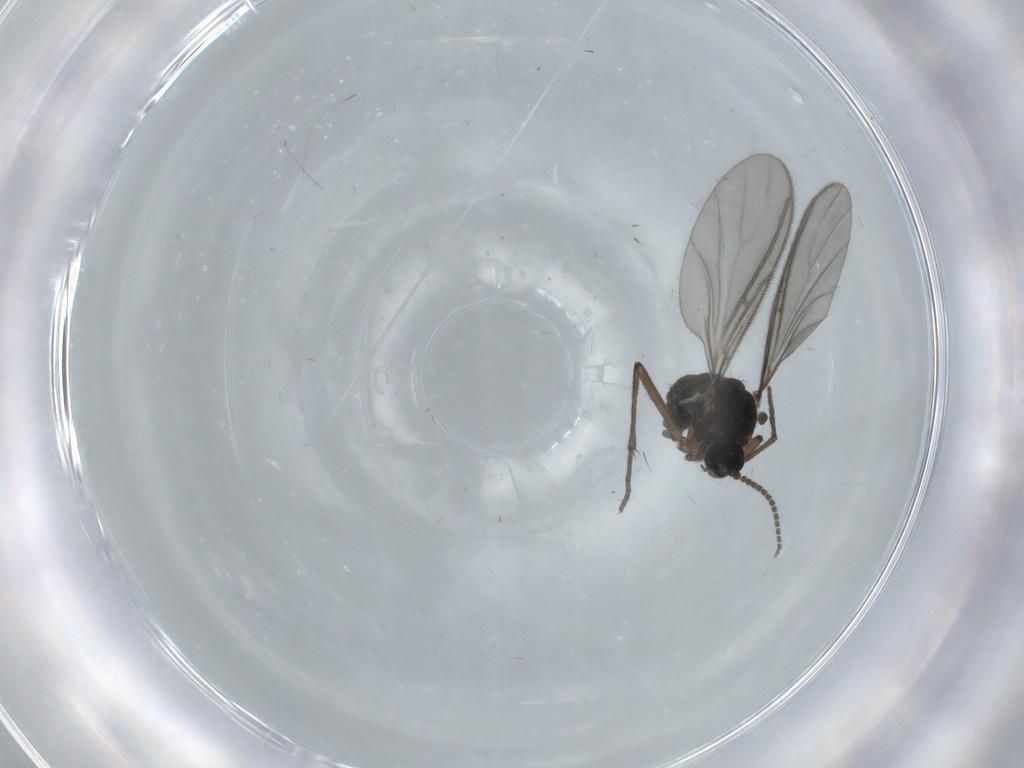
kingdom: Animalia
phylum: Arthropoda
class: Insecta
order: Diptera
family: Sciaridae
